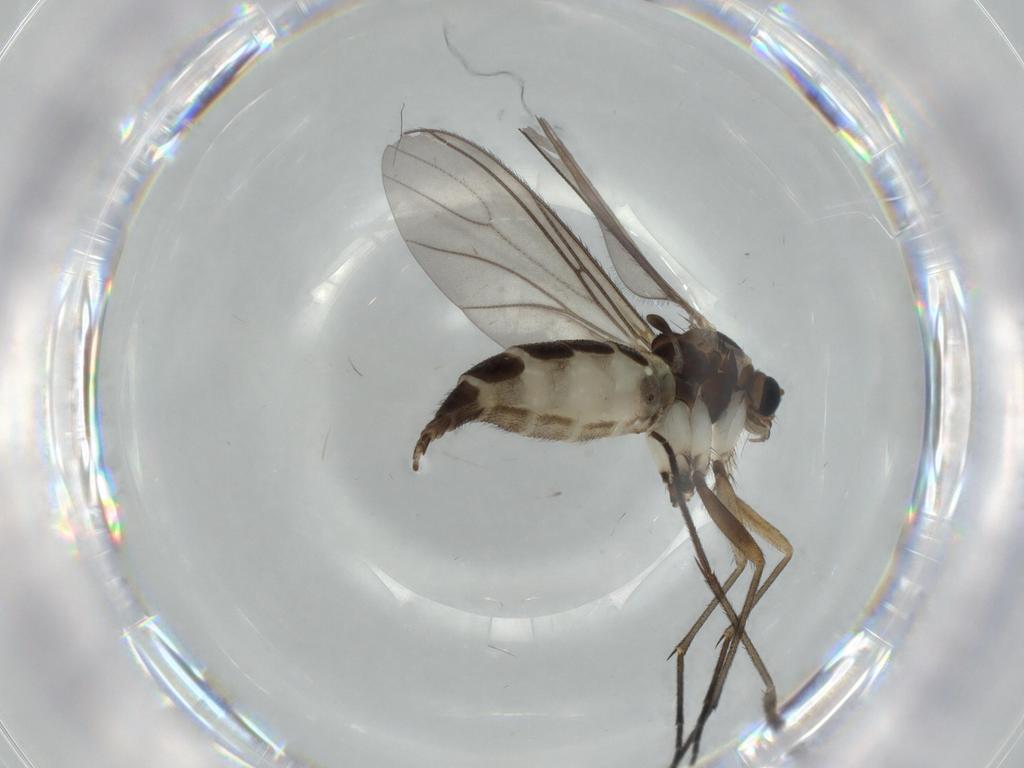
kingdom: Animalia
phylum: Arthropoda
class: Insecta
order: Diptera
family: Sciaridae
